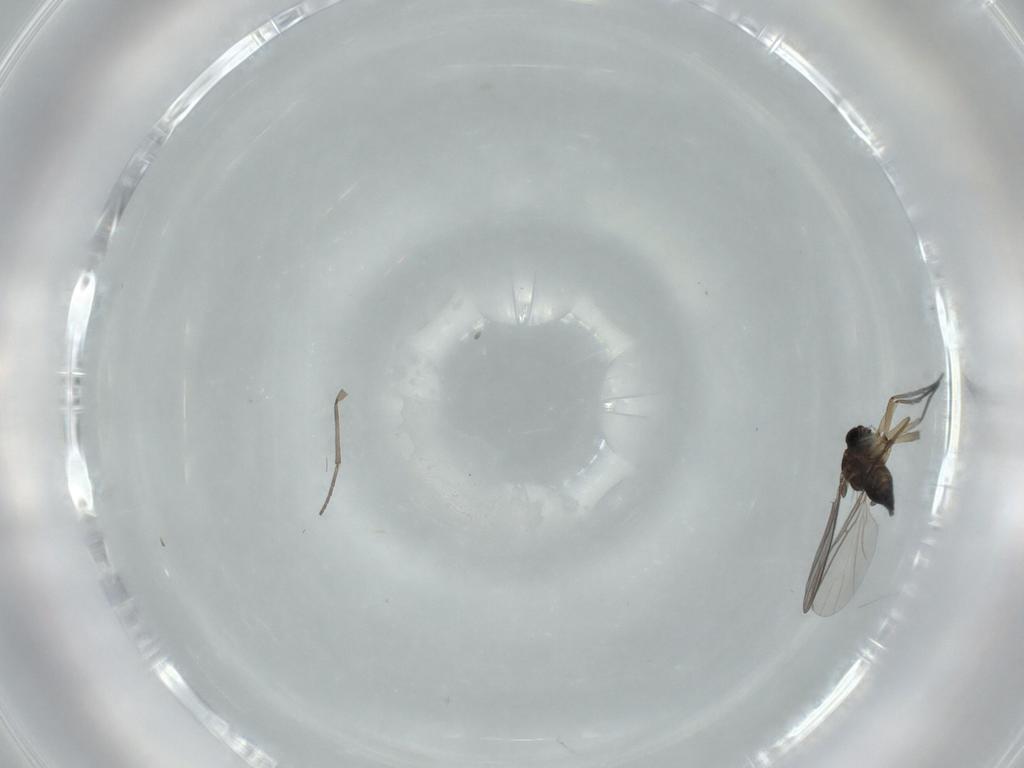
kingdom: Animalia
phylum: Arthropoda
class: Insecta
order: Diptera
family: Sciaridae
